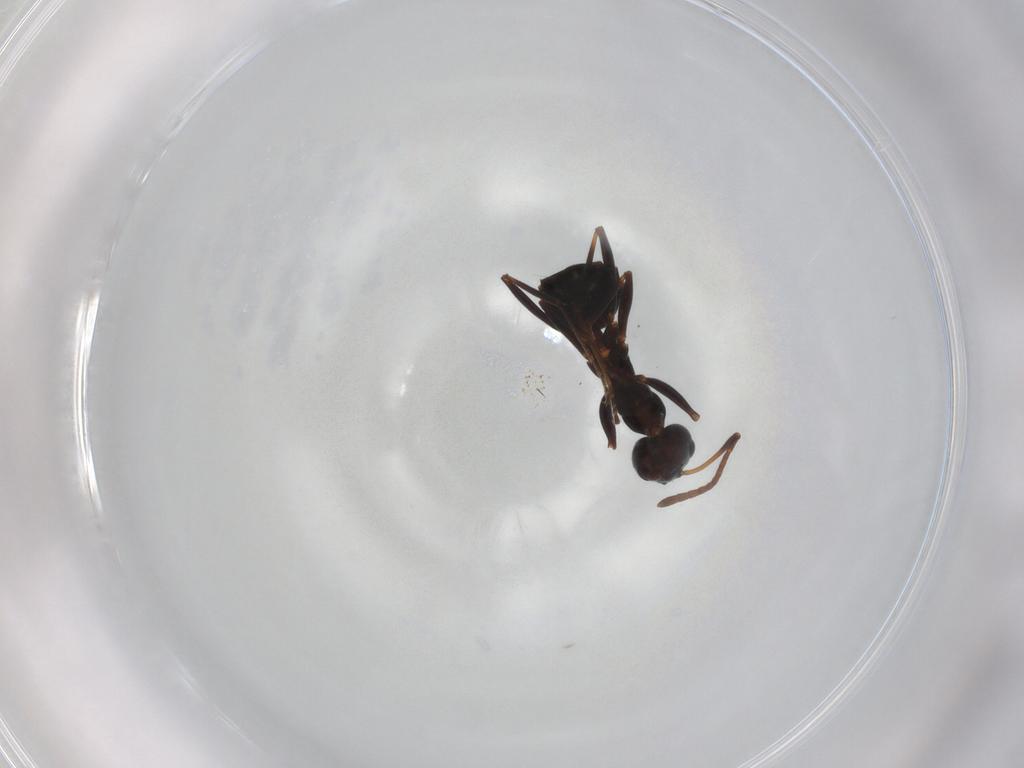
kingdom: Animalia
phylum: Arthropoda
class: Insecta
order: Hymenoptera
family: Formicidae
